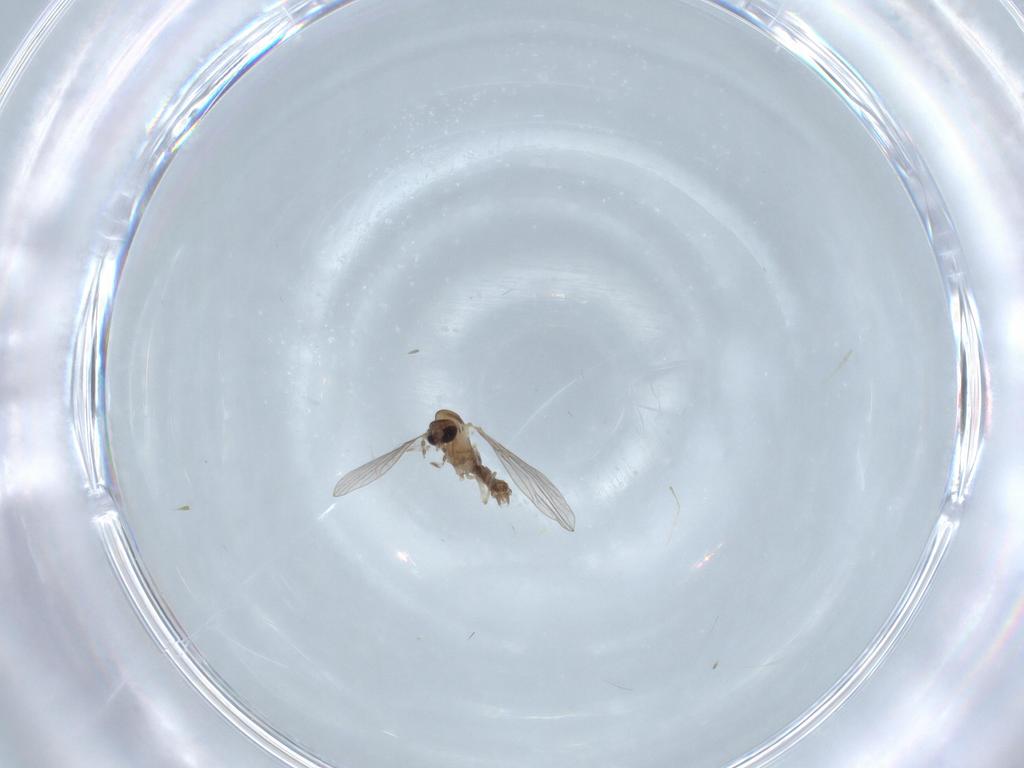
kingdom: Animalia
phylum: Arthropoda
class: Insecta
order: Diptera
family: Cecidomyiidae
